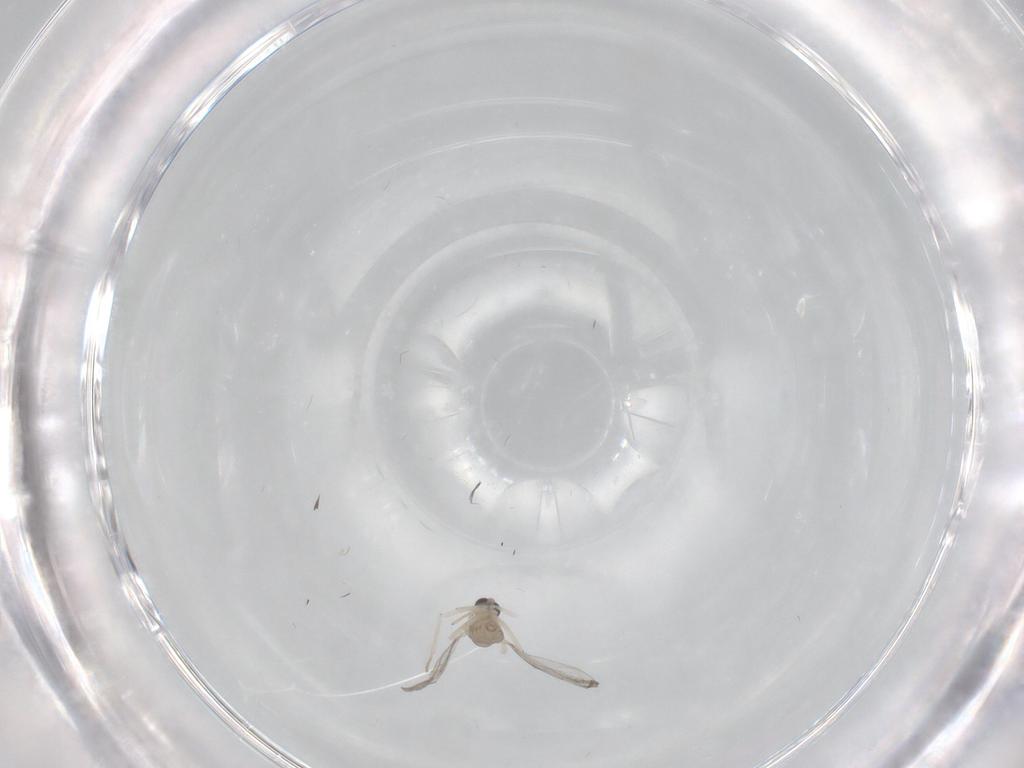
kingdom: Animalia
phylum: Arthropoda
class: Insecta
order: Diptera
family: Cecidomyiidae
